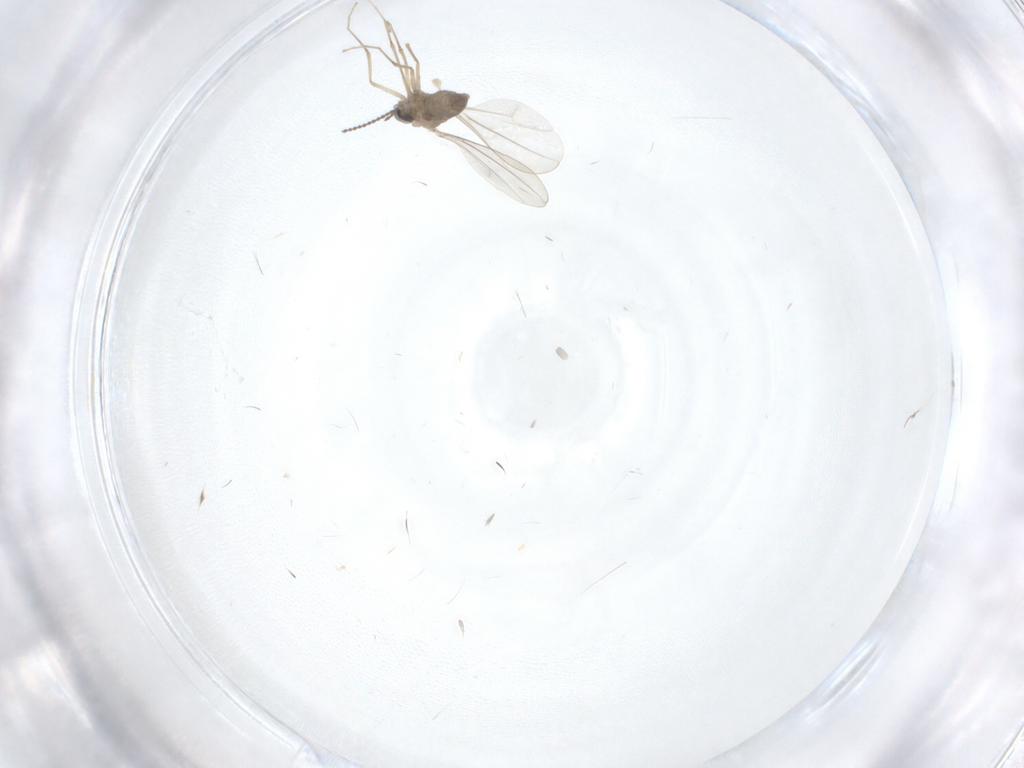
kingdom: Animalia
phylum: Arthropoda
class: Insecta
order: Diptera
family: Cecidomyiidae
